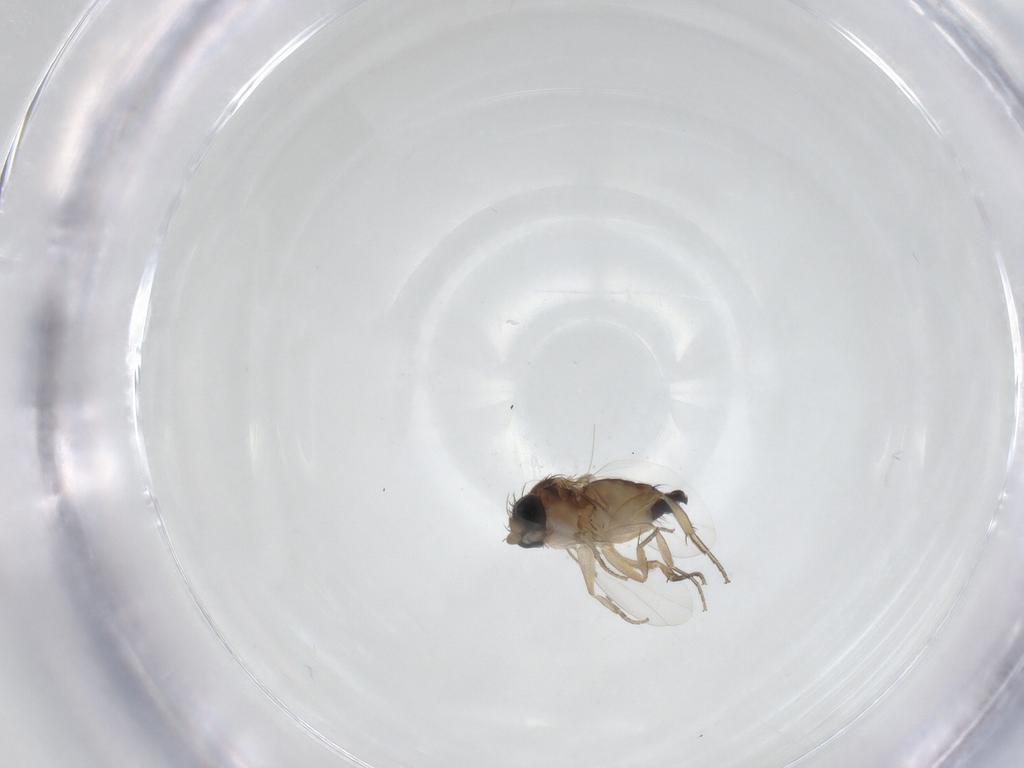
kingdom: Animalia
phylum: Arthropoda
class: Insecta
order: Diptera
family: Phoridae
